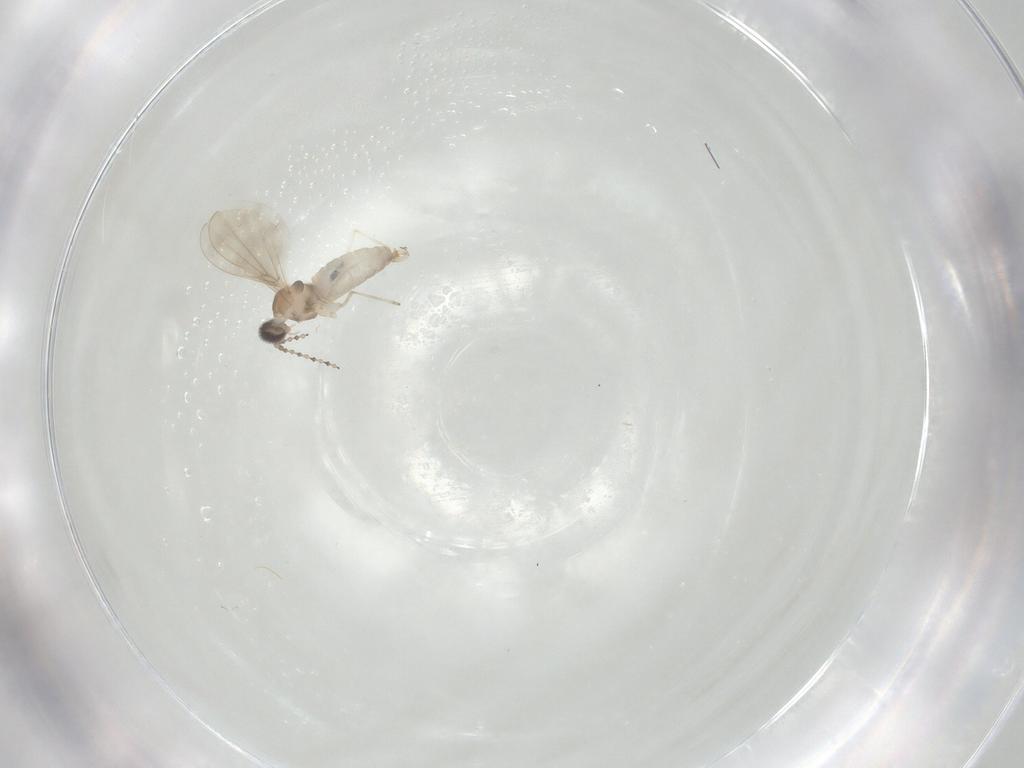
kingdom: Animalia
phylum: Arthropoda
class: Insecta
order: Diptera
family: Cecidomyiidae
